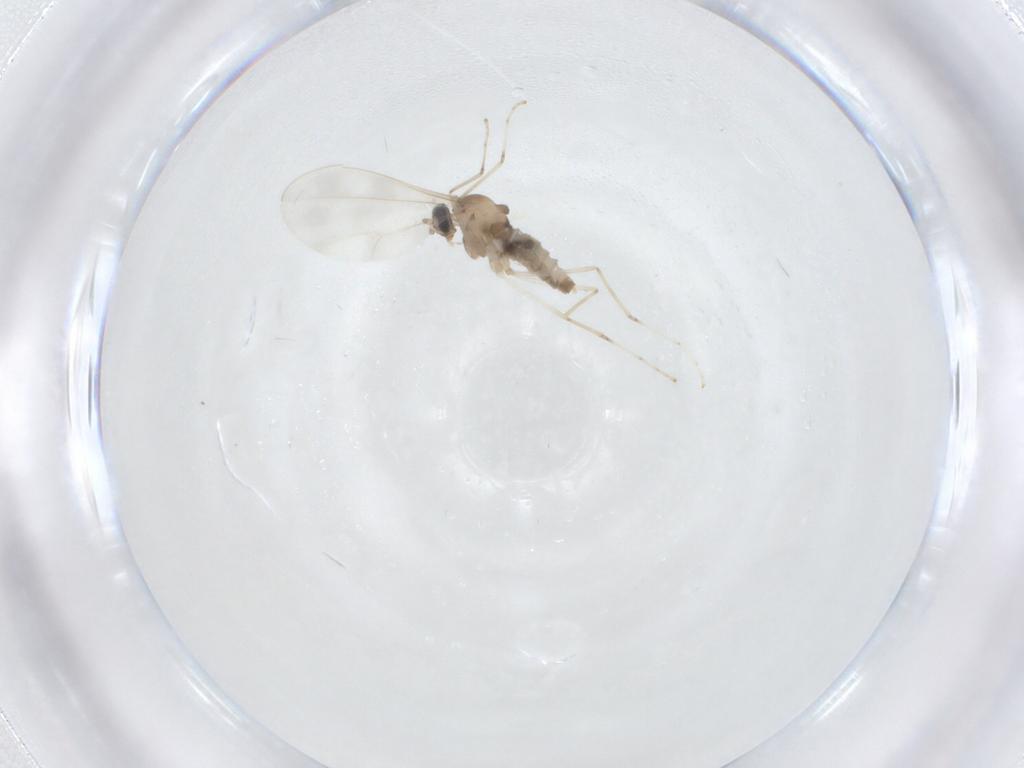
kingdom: Animalia
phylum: Arthropoda
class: Insecta
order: Diptera
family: Cecidomyiidae
